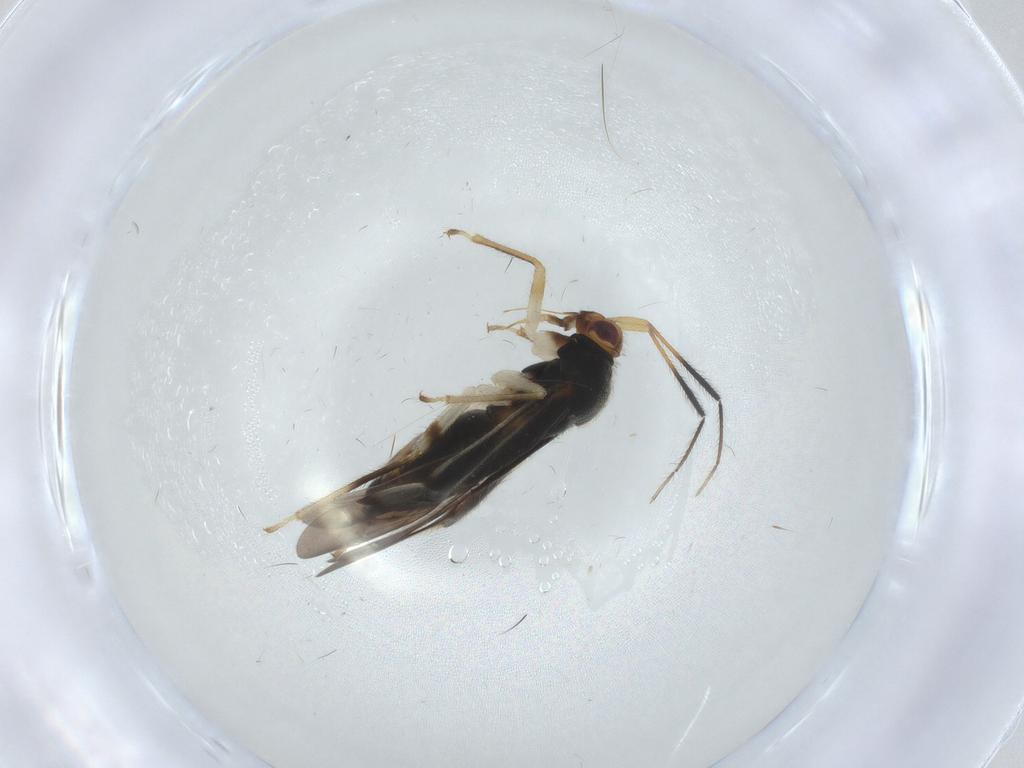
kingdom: Animalia
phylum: Arthropoda
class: Insecta
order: Hemiptera
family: Miridae
